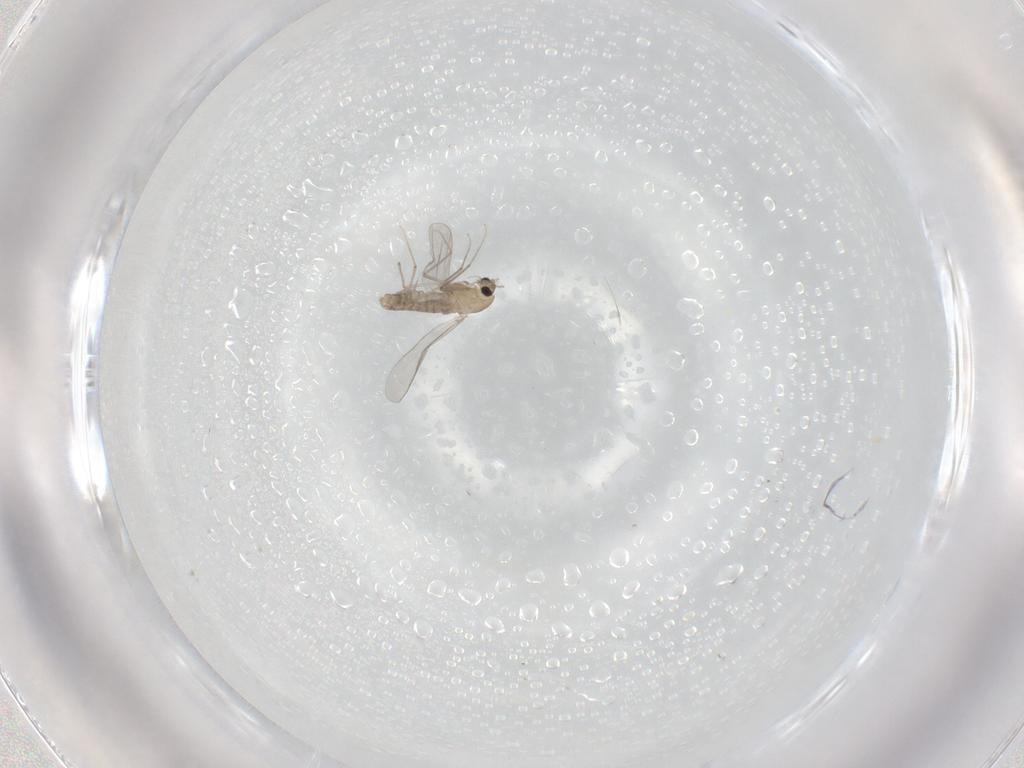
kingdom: Animalia
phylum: Arthropoda
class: Insecta
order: Diptera
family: Chironomidae
